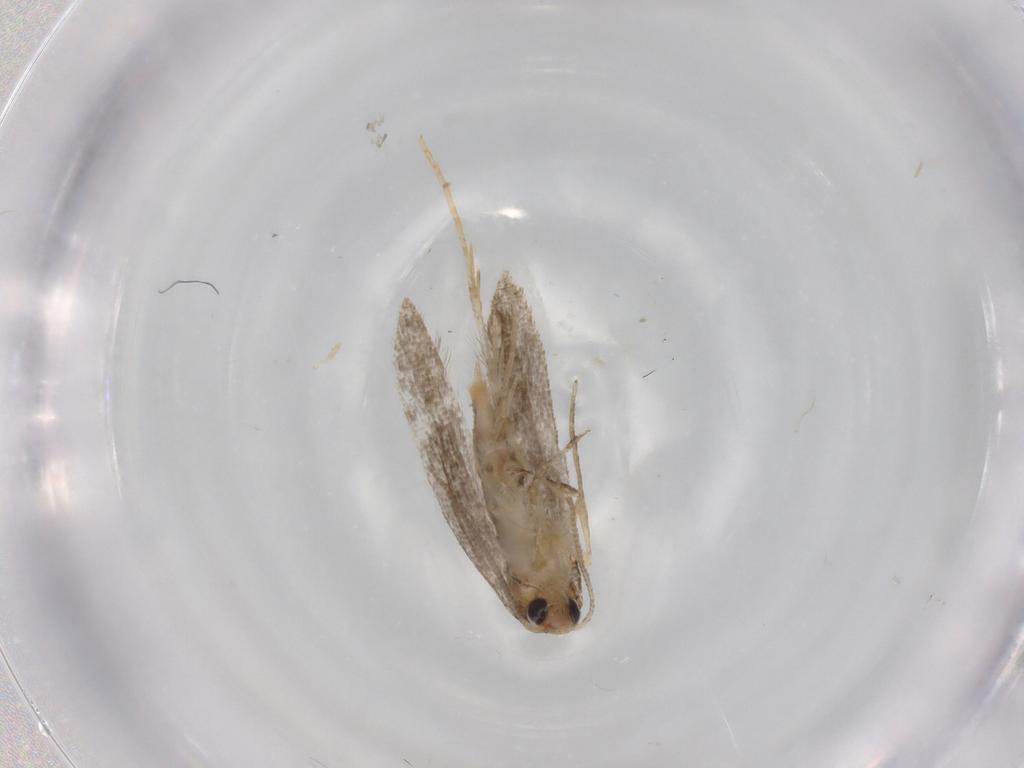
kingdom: Animalia
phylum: Arthropoda
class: Insecta
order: Lepidoptera
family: Tineidae
